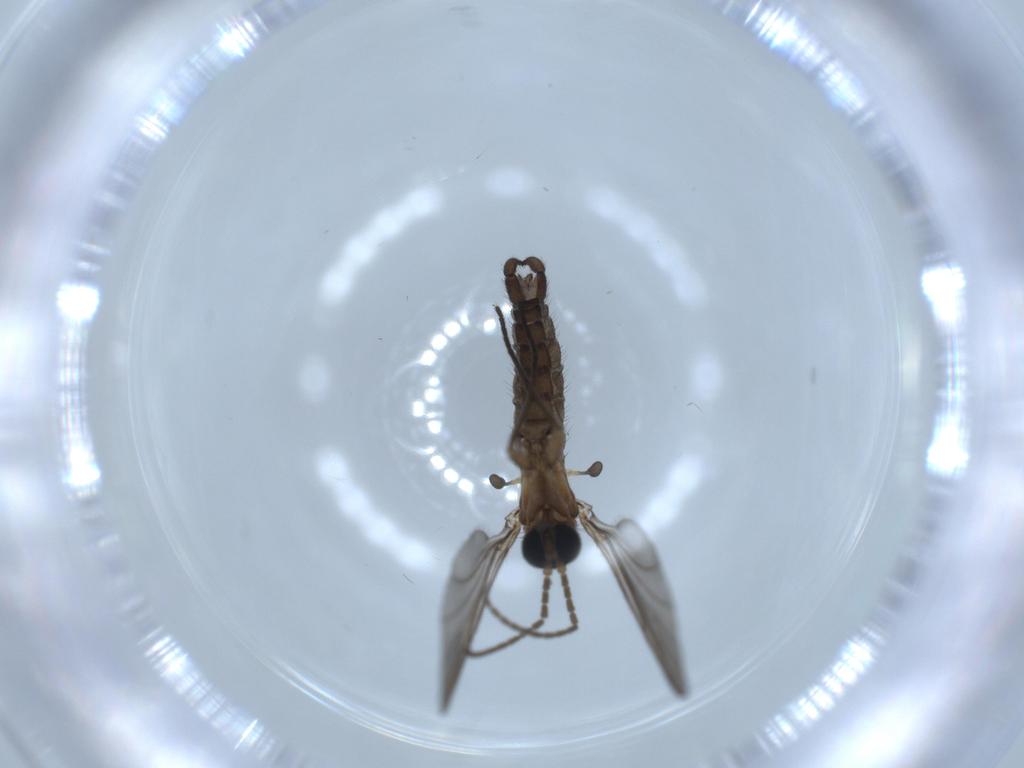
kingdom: Animalia
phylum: Arthropoda
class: Insecta
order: Diptera
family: Sciaridae
